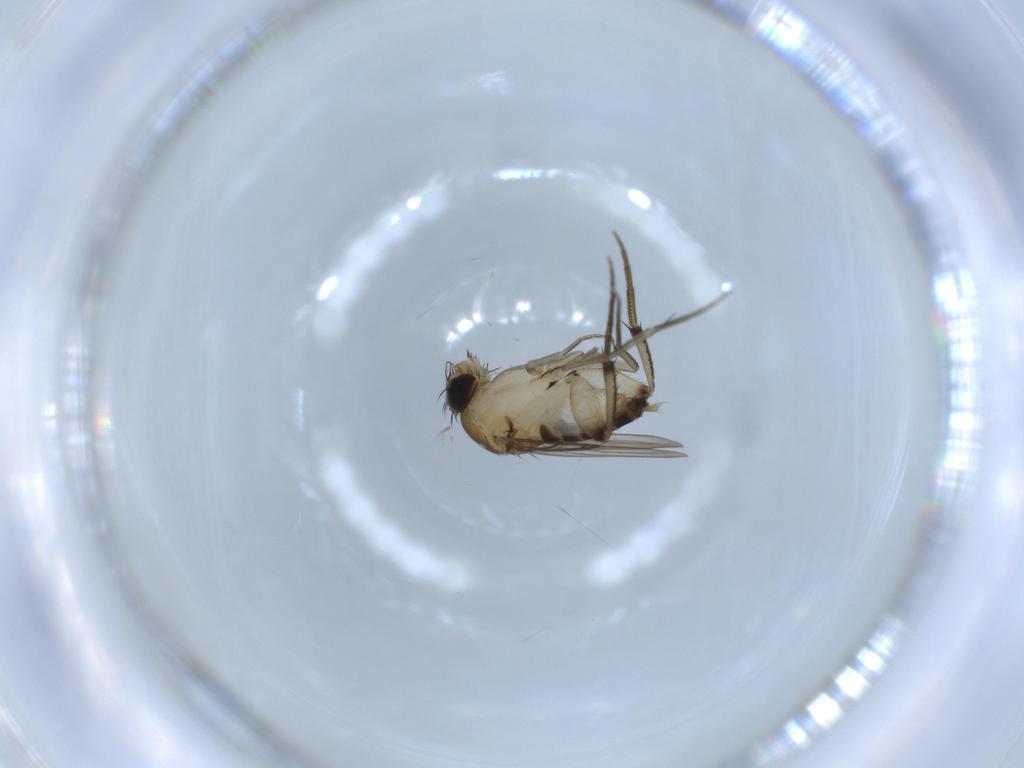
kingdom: Animalia
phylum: Arthropoda
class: Insecta
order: Diptera
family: Phoridae
